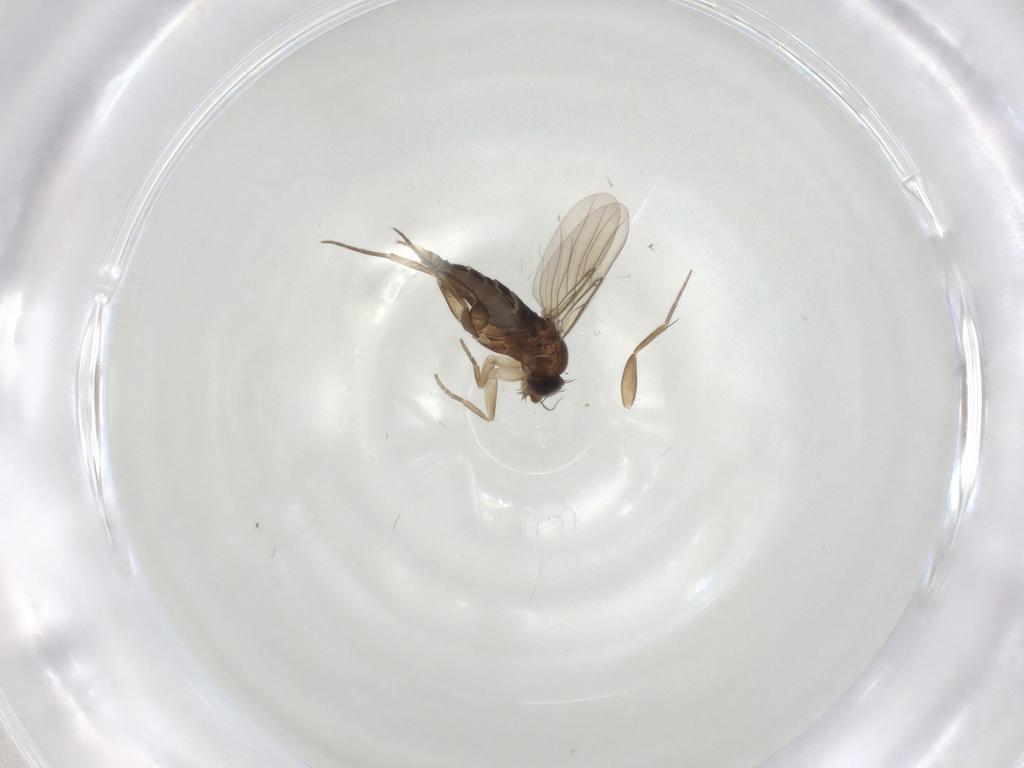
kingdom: Animalia
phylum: Arthropoda
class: Insecta
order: Diptera
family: Phoridae
